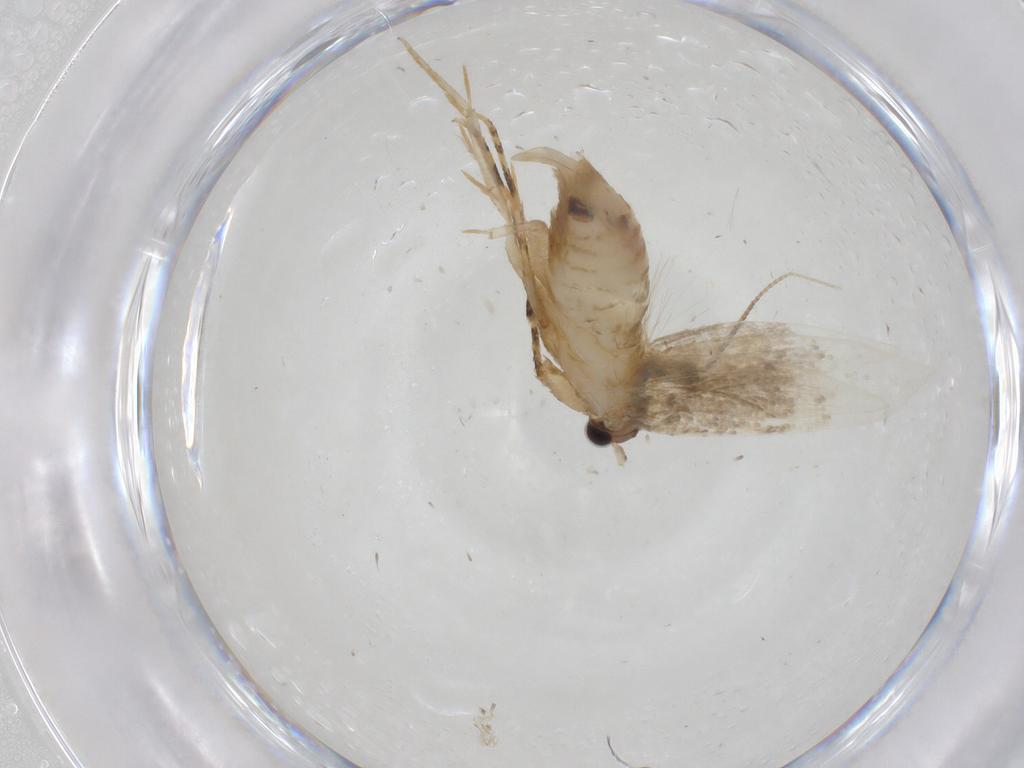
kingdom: Animalia
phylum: Arthropoda
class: Insecta
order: Lepidoptera
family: Tineidae
